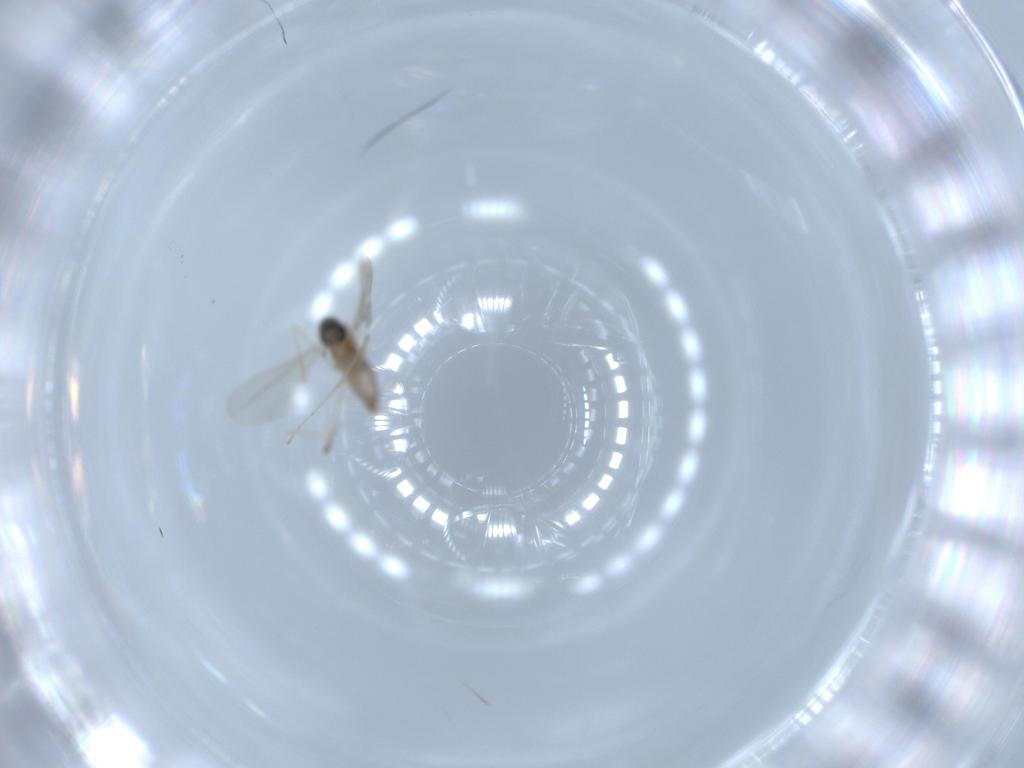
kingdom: Animalia
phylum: Arthropoda
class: Insecta
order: Diptera
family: Cecidomyiidae
